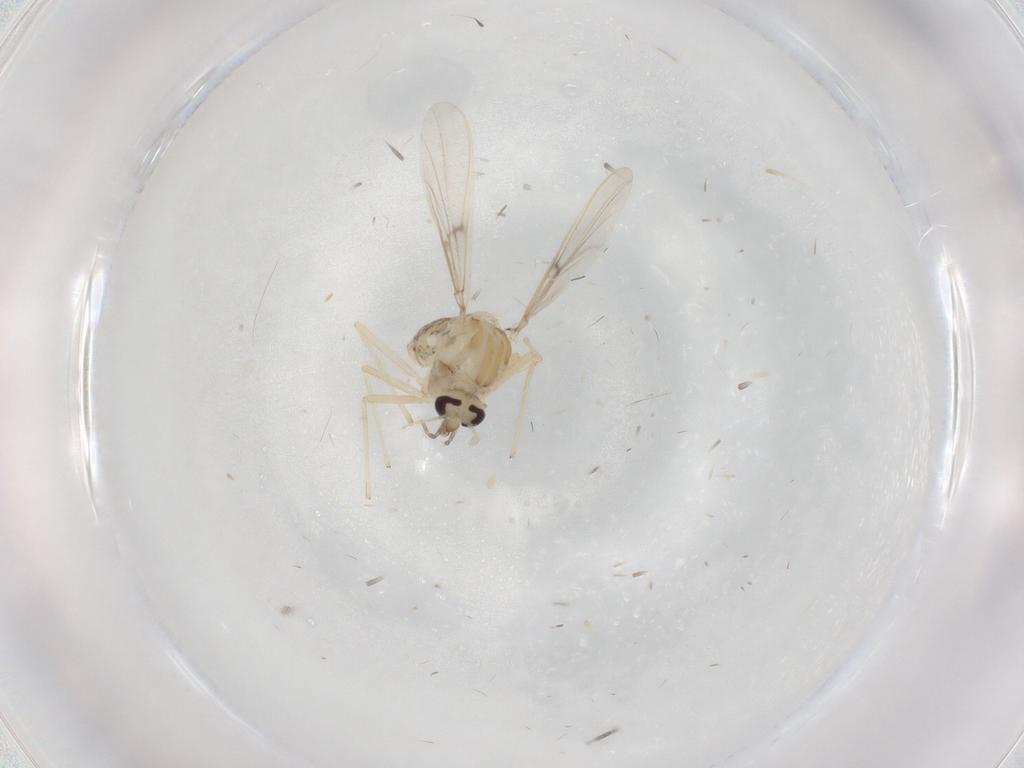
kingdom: Animalia
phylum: Arthropoda
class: Insecta
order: Diptera
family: Chironomidae
